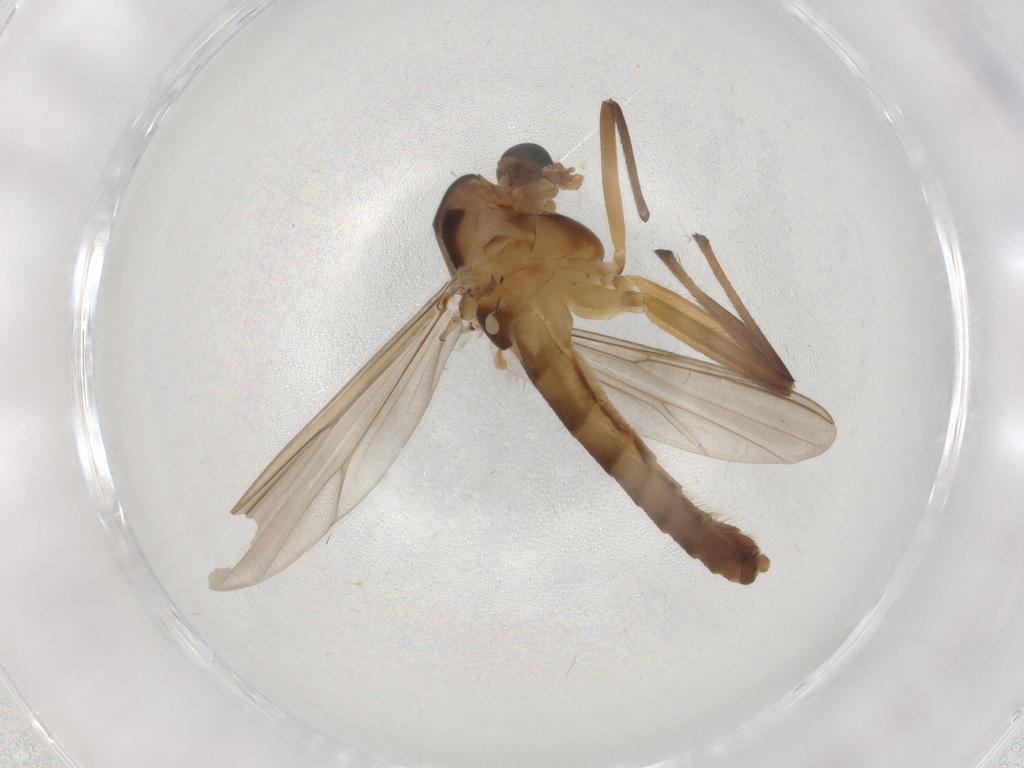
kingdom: Animalia
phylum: Arthropoda
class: Insecta
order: Diptera
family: Chironomidae
